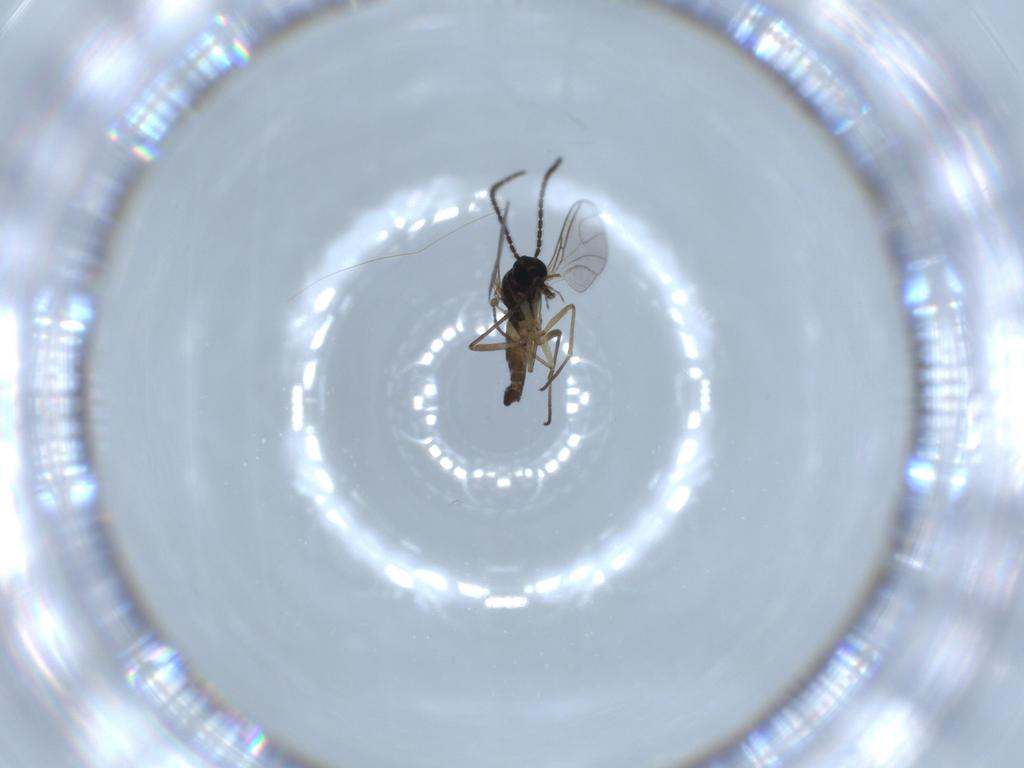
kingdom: Animalia
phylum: Arthropoda
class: Insecta
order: Diptera
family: Sciaridae
